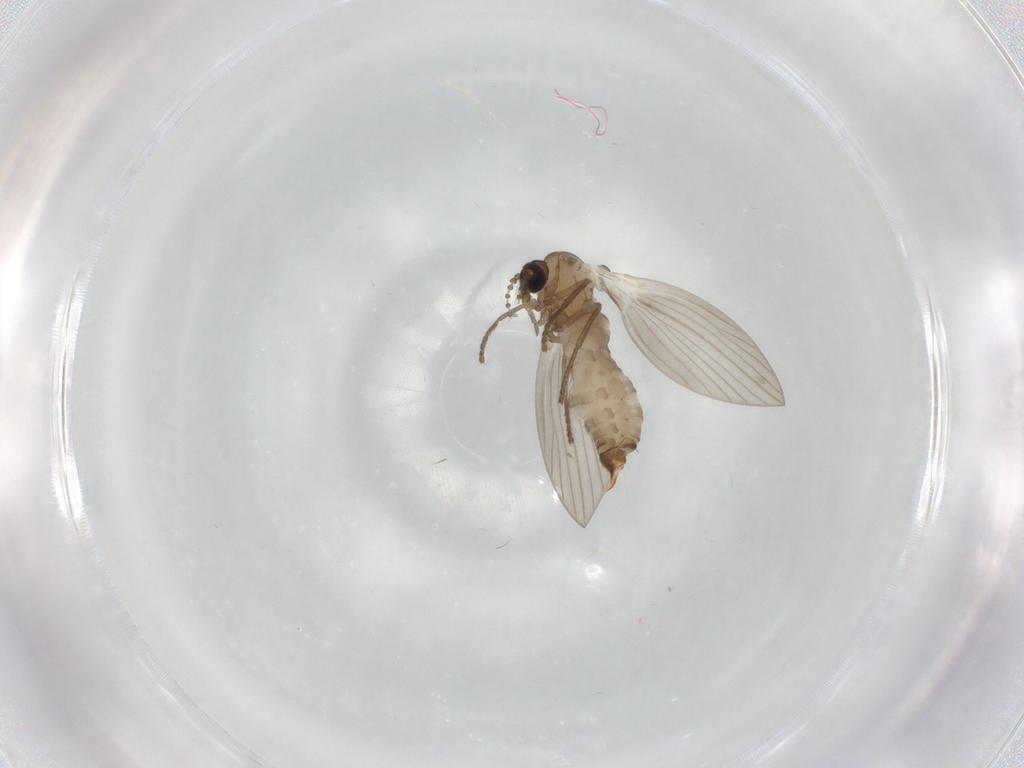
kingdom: Animalia
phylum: Arthropoda
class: Insecta
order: Diptera
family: Psychodidae
